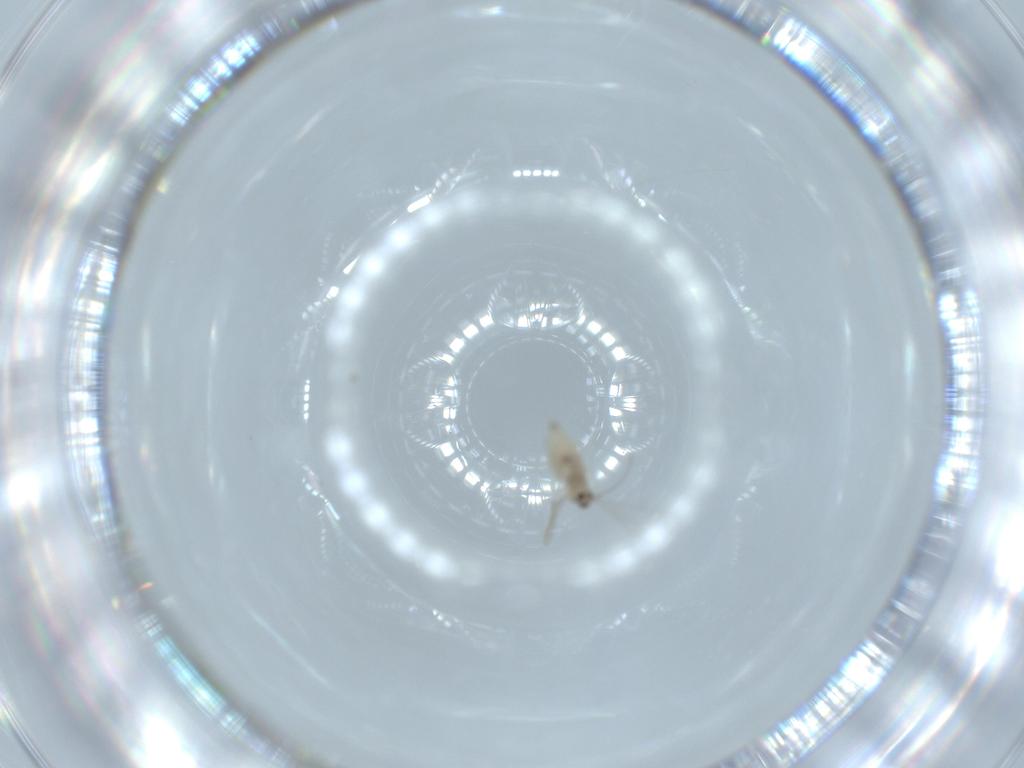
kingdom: Animalia
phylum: Arthropoda
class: Insecta
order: Diptera
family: Cecidomyiidae
